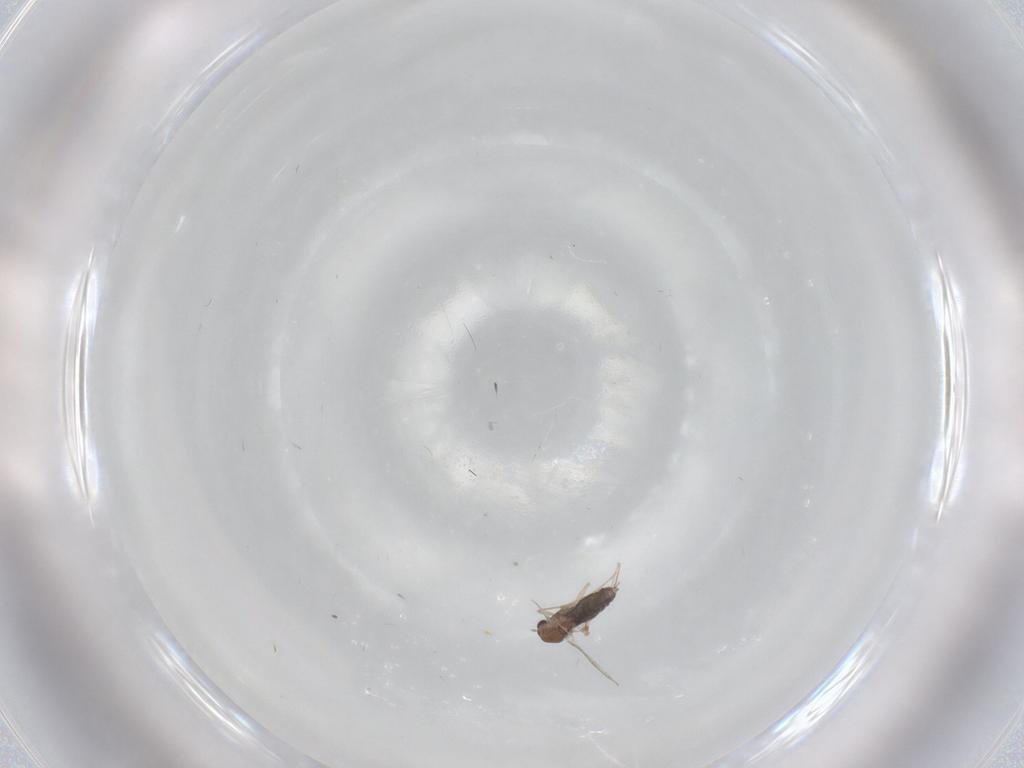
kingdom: Animalia
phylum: Arthropoda
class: Insecta
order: Diptera
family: Chironomidae
